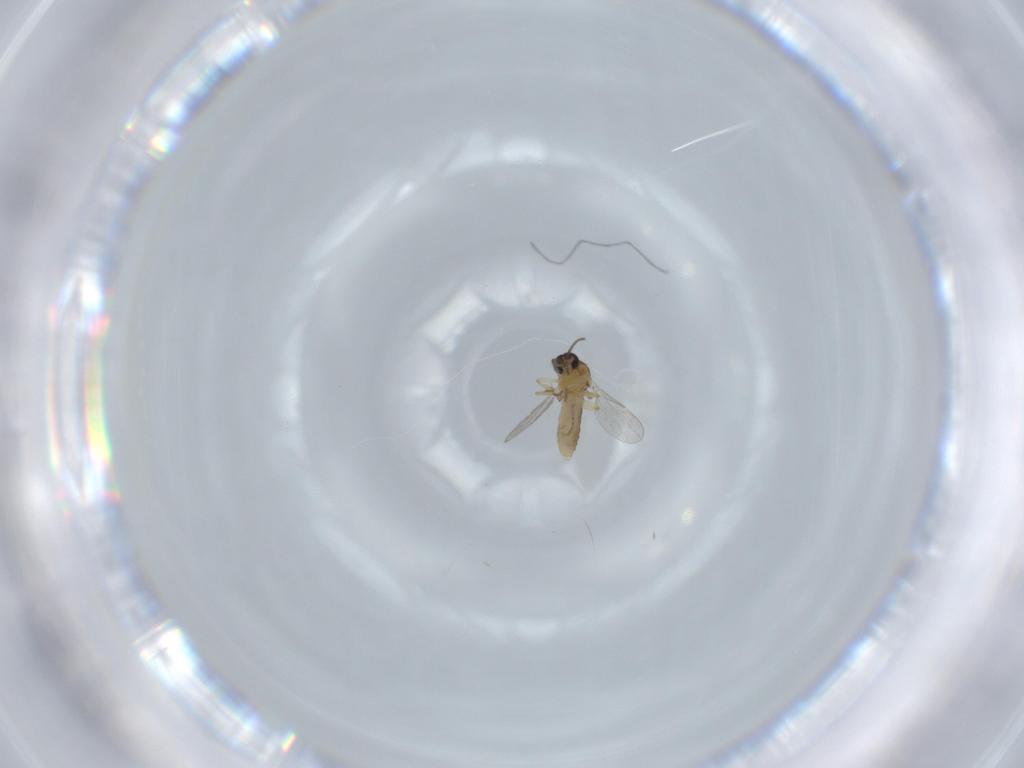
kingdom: Animalia
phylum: Arthropoda
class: Insecta
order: Diptera
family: Ceratopogonidae
